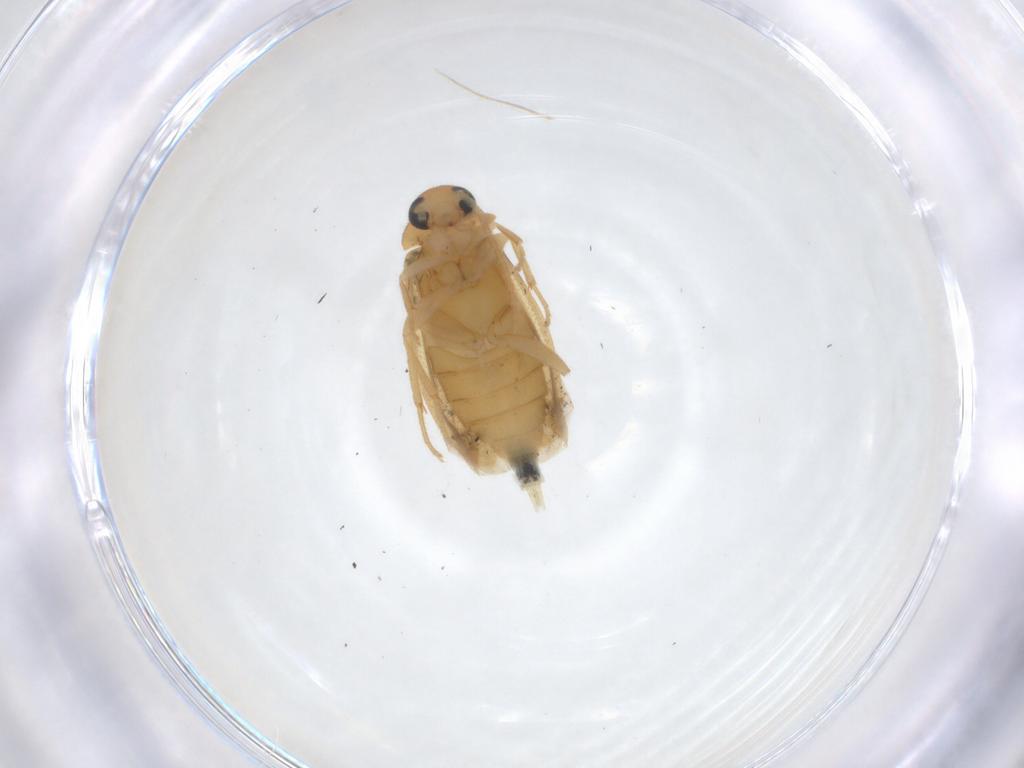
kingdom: Animalia
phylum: Arthropoda
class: Insecta
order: Coleoptera
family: Scraptiidae
